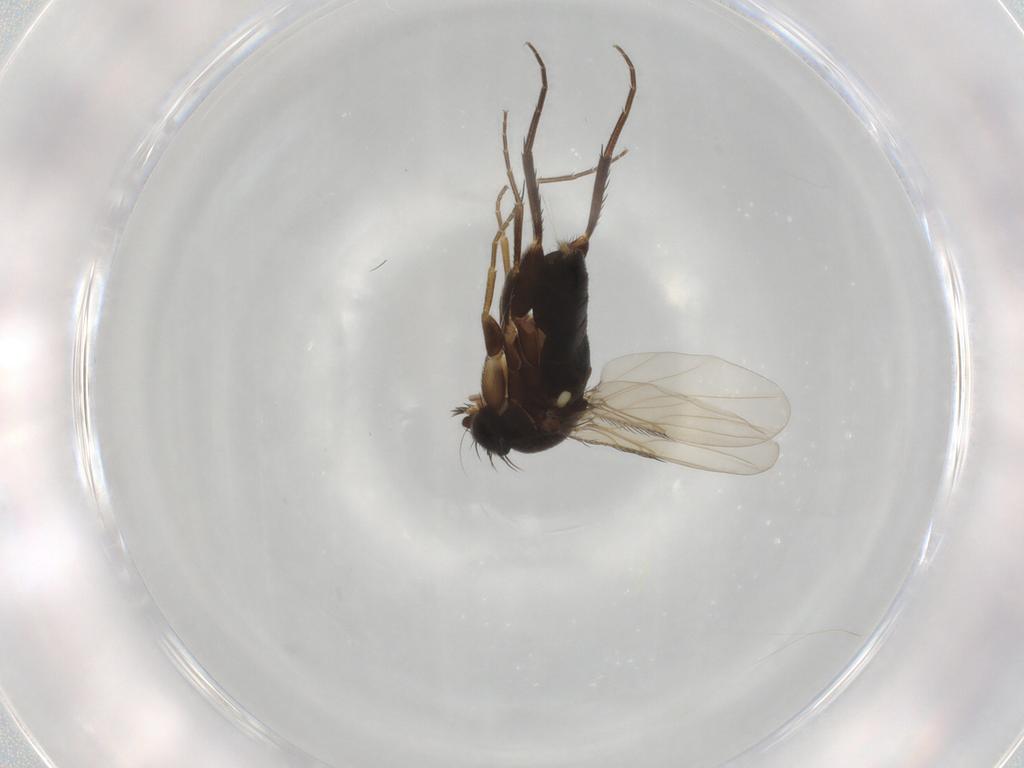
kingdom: Animalia
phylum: Arthropoda
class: Insecta
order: Diptera
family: Phoridae
